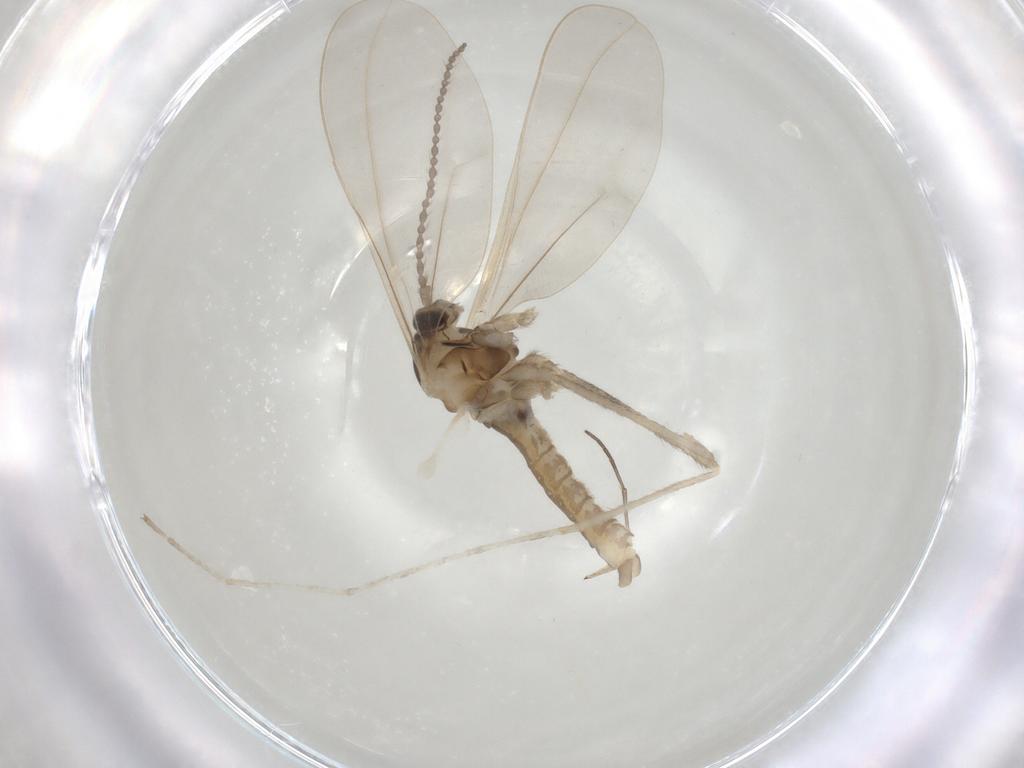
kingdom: Animalia
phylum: Arthropoda
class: Insecta
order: Diptera
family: Cecidomyiidae
